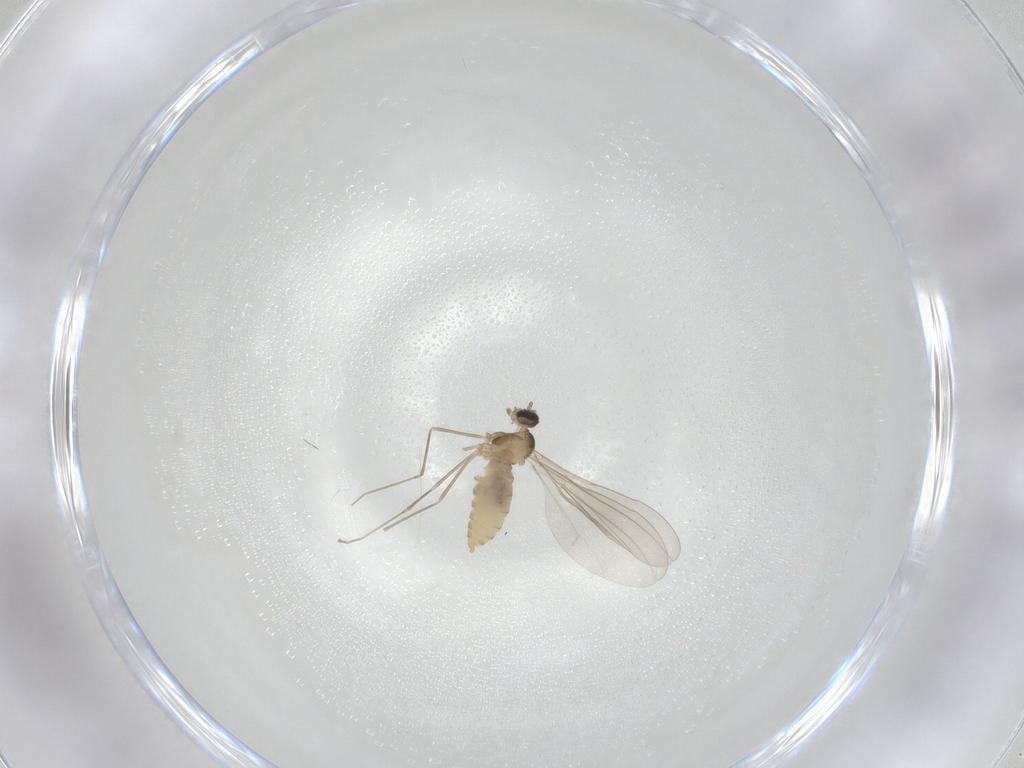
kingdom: Animalia
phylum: Arthropoda
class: Insecta
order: Diptera
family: Cecidomyiidae
